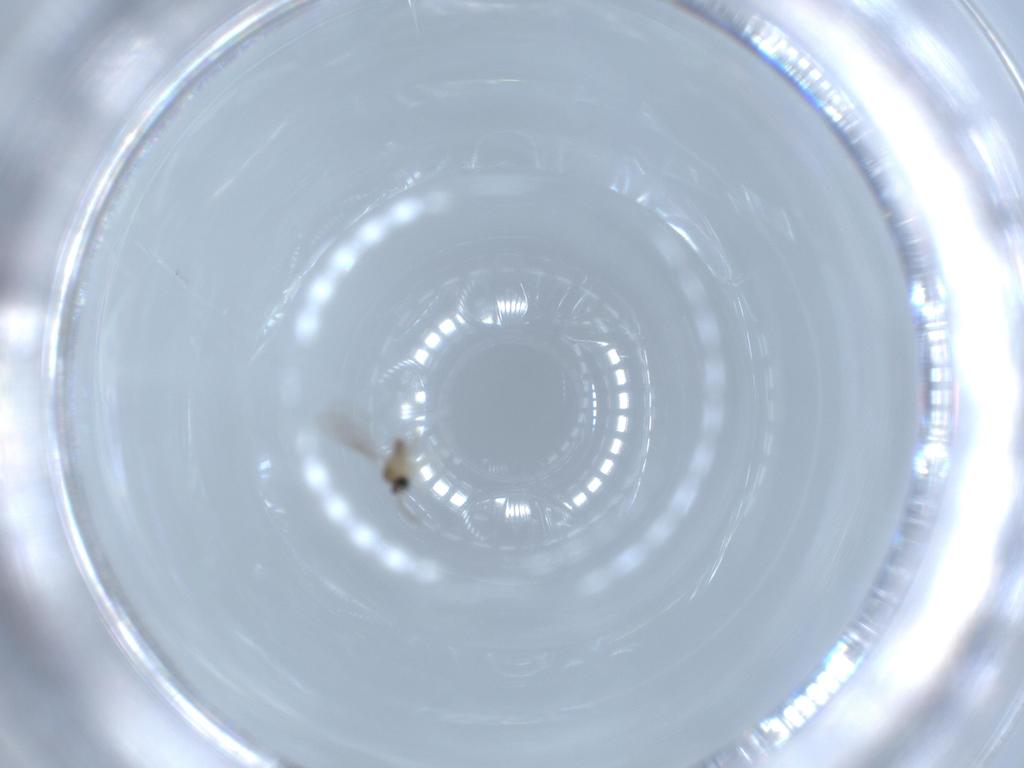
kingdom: Animalia
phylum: Arthropoda
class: Insecta
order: Diptera
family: Cecidomyiidae
